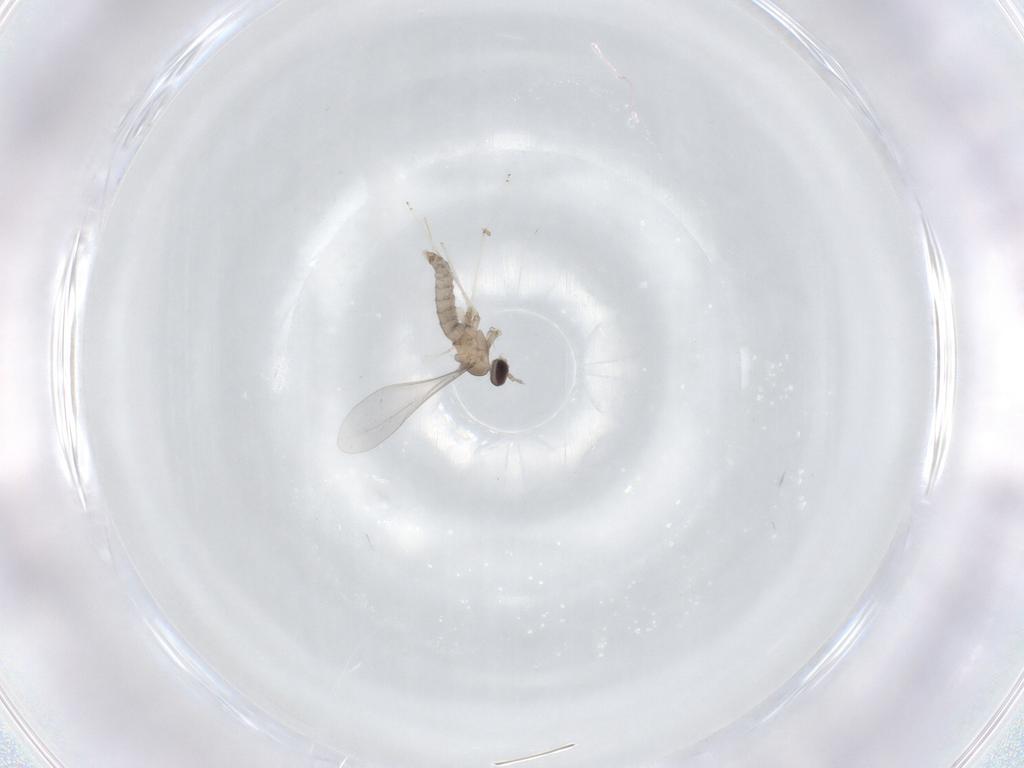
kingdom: Animalia
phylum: Arthropoda
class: Insecta
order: Diptera
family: Cecidomyiidae
